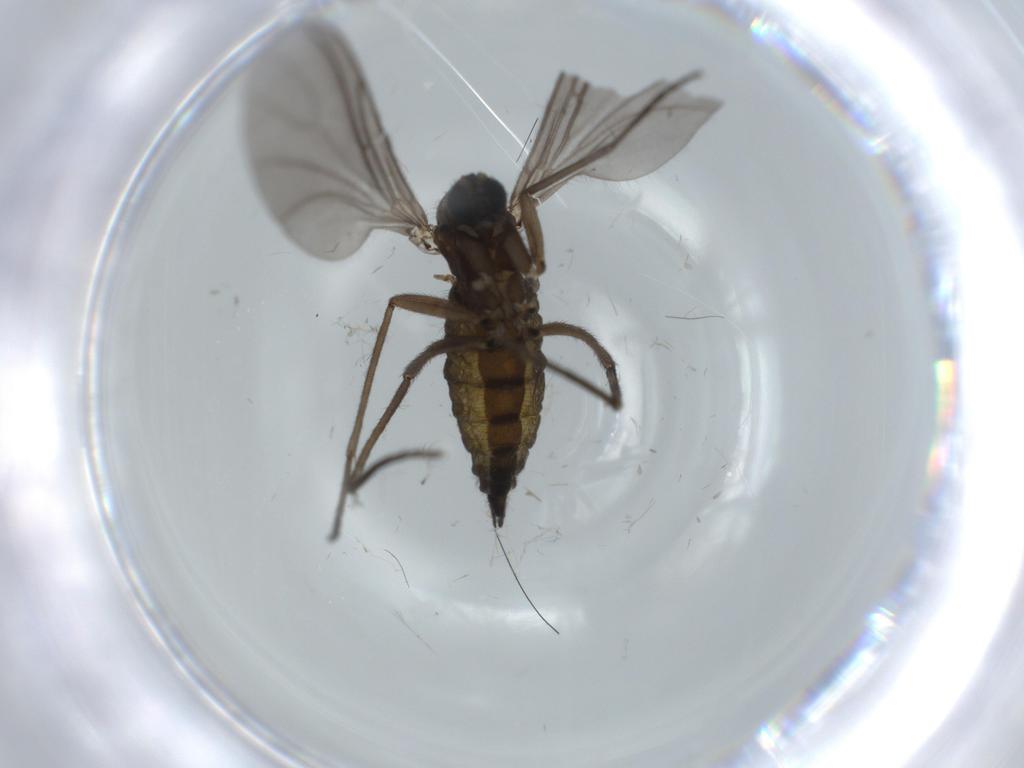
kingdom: Animalia
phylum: Arthropoda
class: Insecta
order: Diptera
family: Sciaridae
